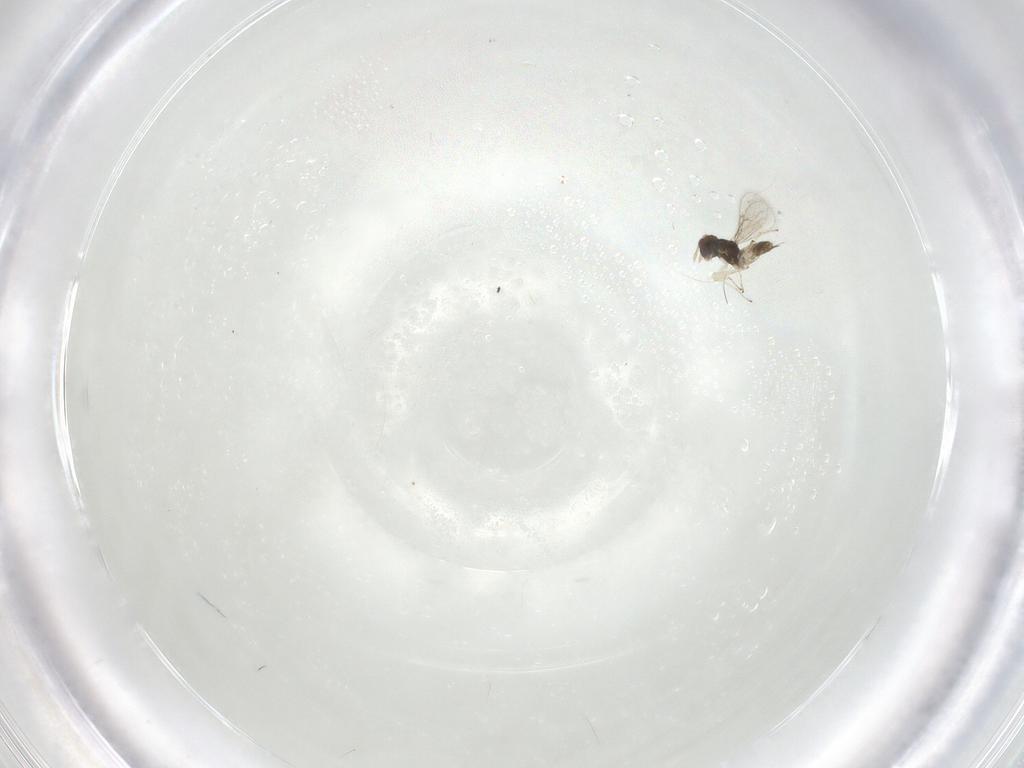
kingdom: Animalia
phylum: Arthropoda
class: Insecta
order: Hymenoptera
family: Eulophidae
